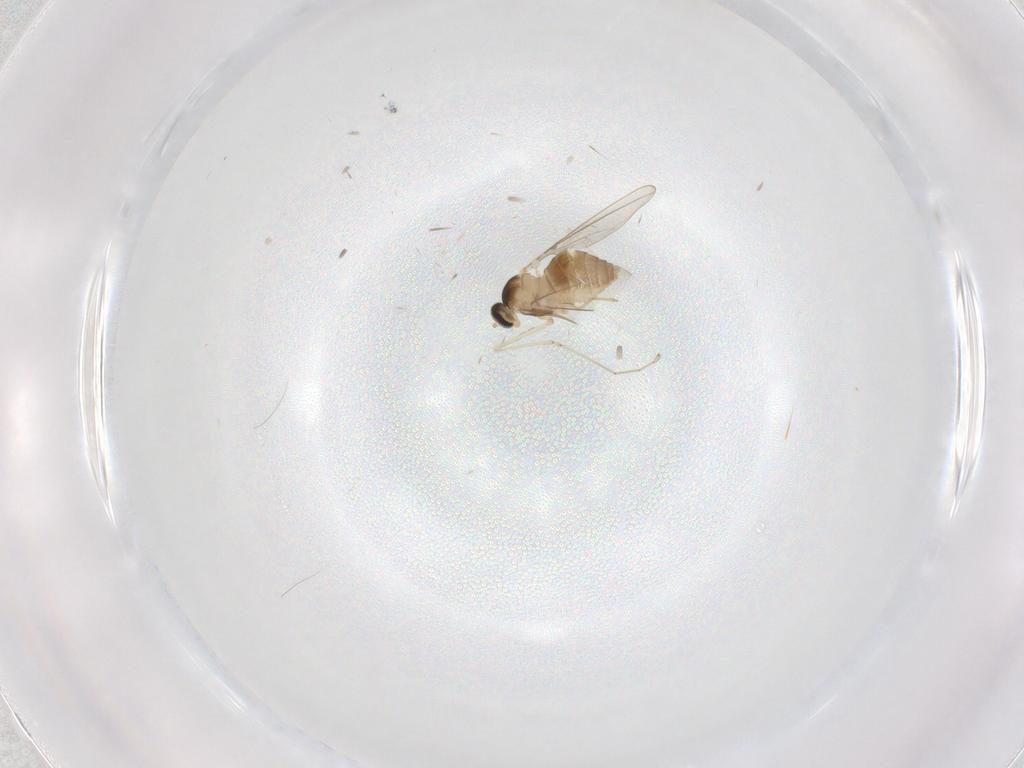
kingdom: Animalia
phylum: Arthropoda
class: Insecta
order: Diptera
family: Cecidomyiidae
